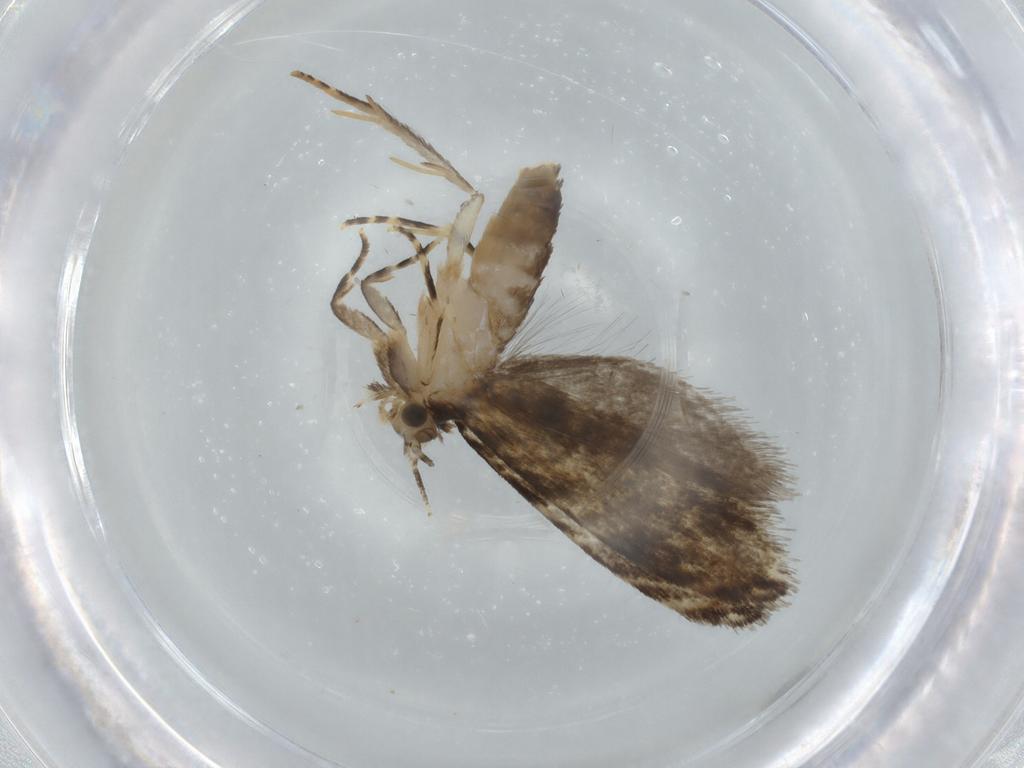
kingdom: Animalia
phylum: Arthropoda
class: Insecta
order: Lepidoptera
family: Tineidae
